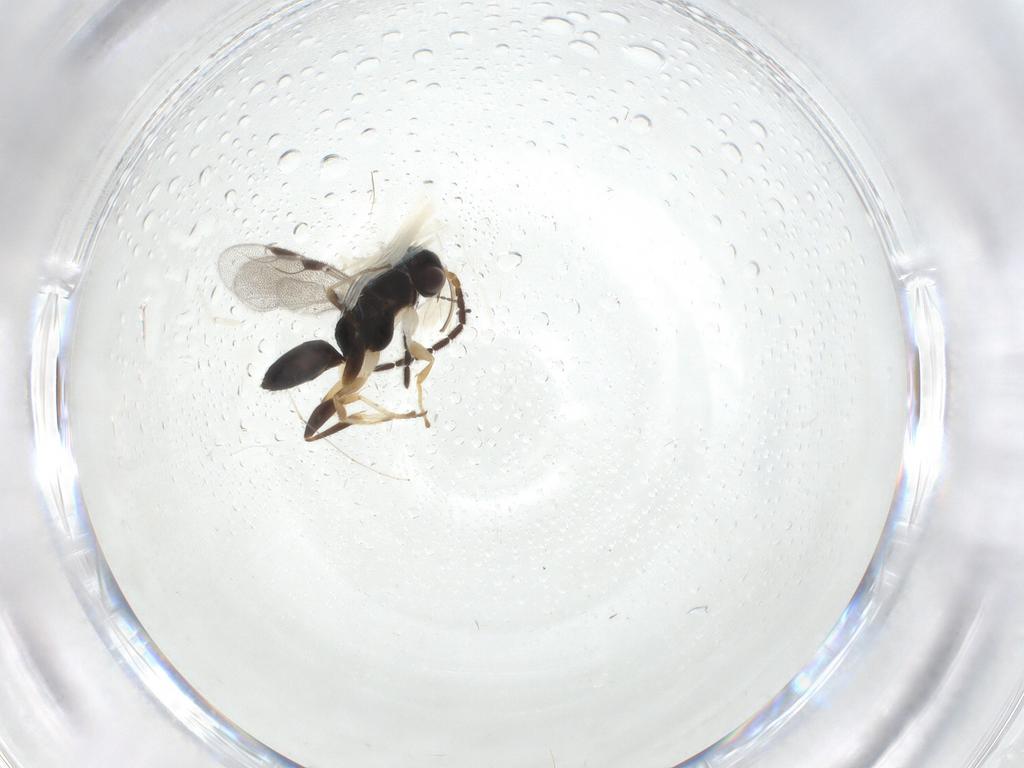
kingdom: Animalia
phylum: Arthropoda
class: Insecta
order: Hymenoptera
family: Dryinidae
